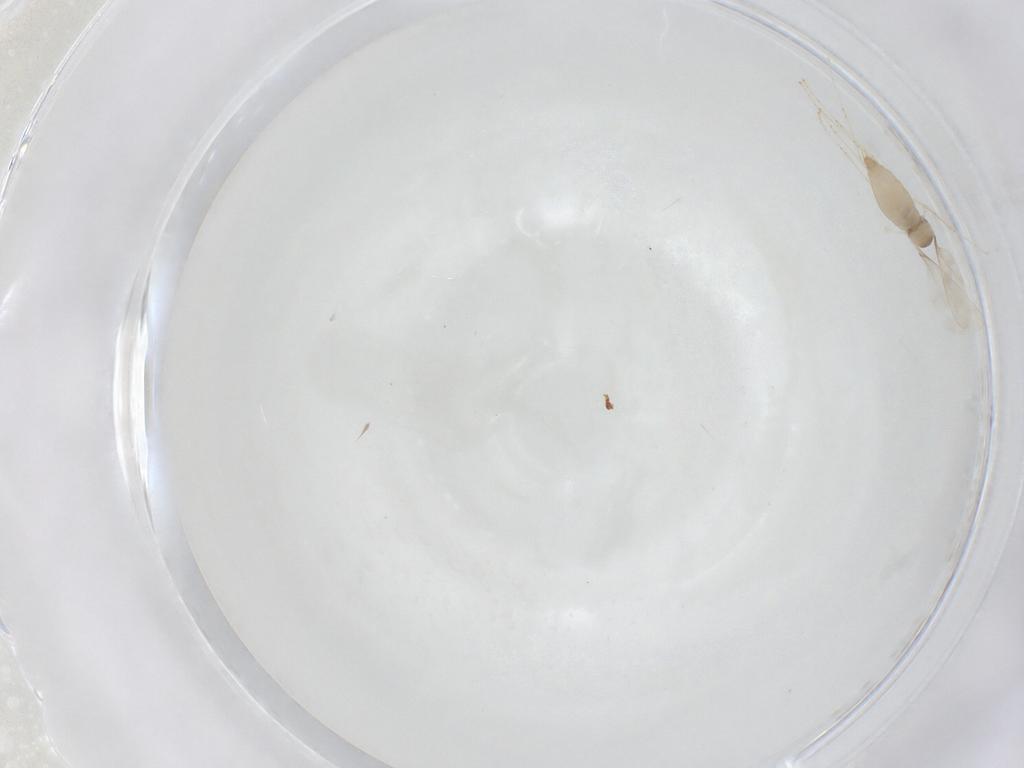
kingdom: Animalia
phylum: Arthropoda
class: Insecta
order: Diptera
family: Cecidomyiidae
